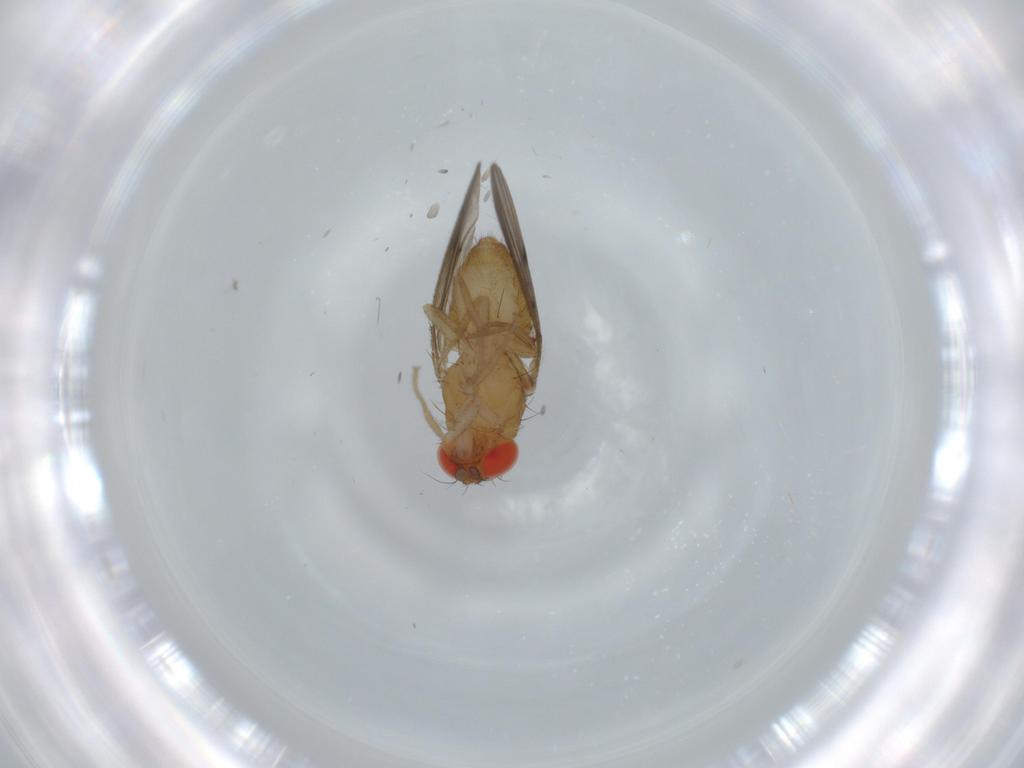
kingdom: Animalia
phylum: Arthropoda
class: Insecta
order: Diptera
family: Drosophilidae
